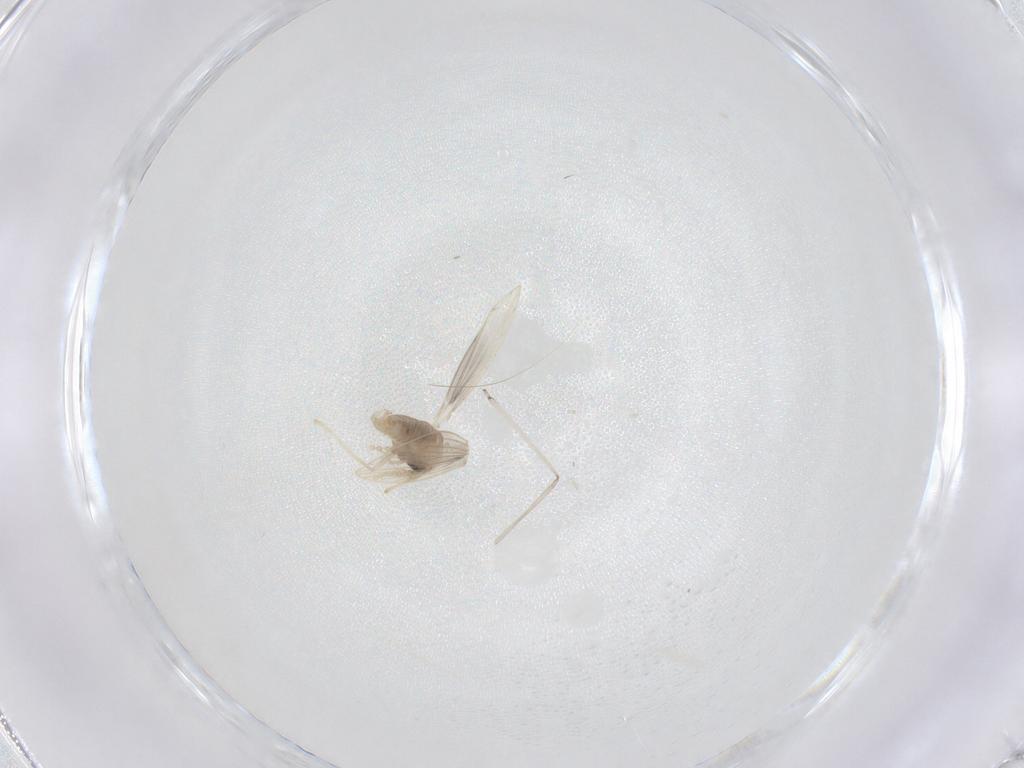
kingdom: Animalia
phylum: Arthropoda
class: Insecta
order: Diptera
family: Psychodidae
